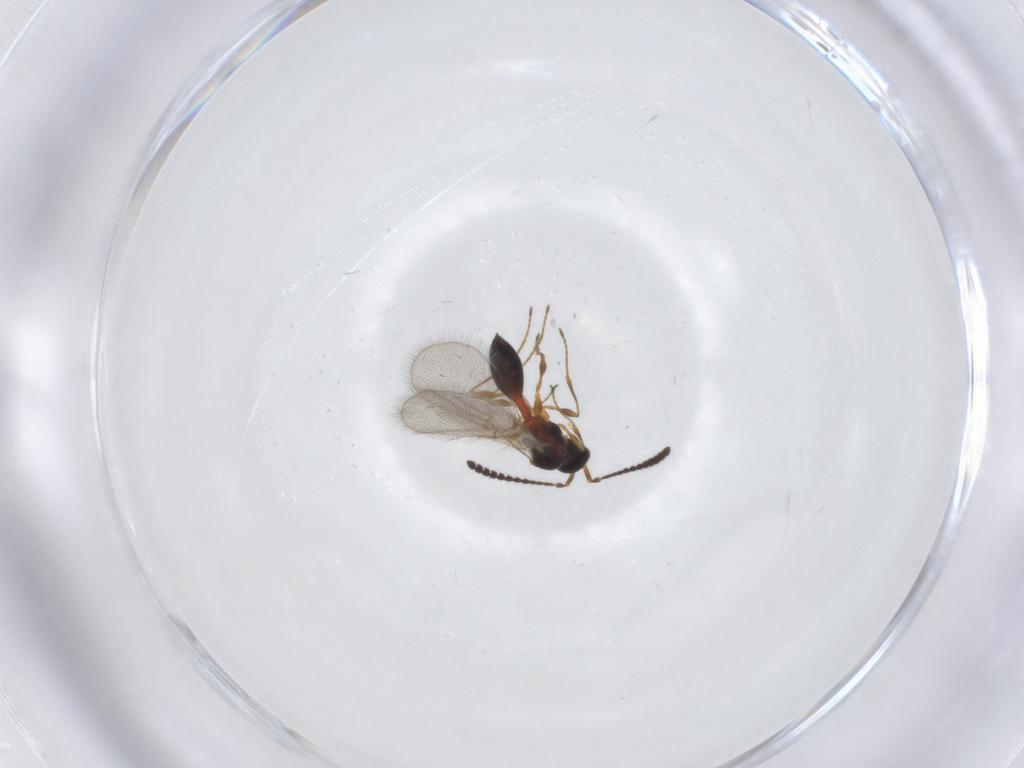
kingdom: Animalia
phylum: Arthropoda
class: Insecta
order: Hymenoptera
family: Diapriidae
